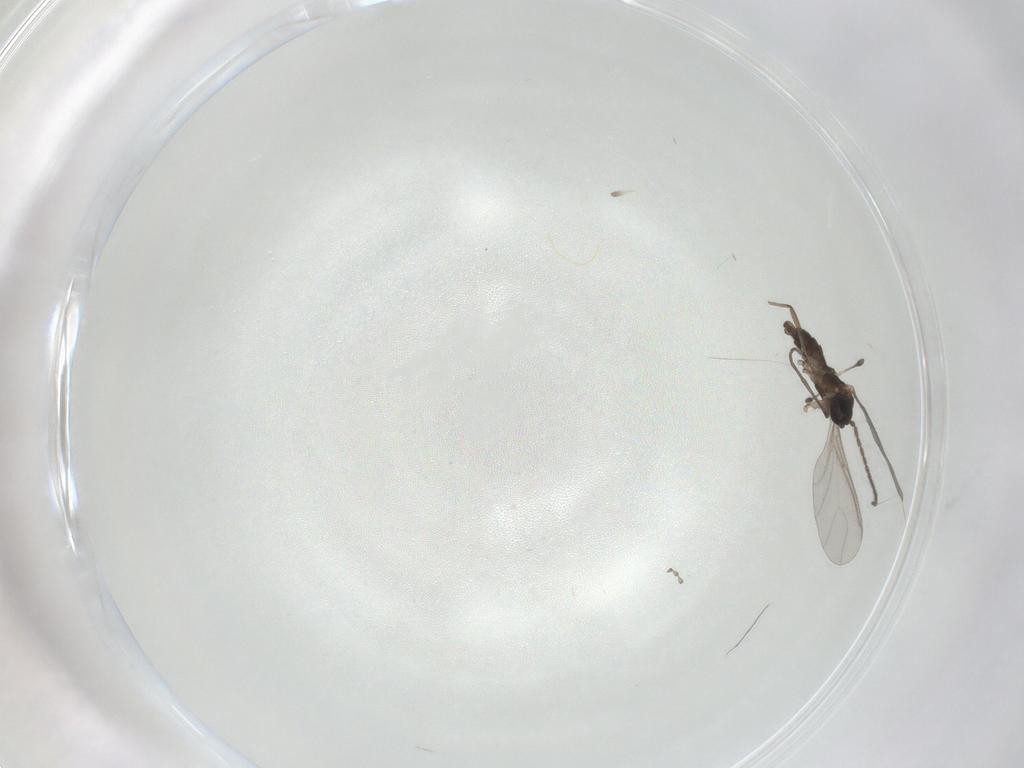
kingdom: Animalia
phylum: Arthropoda
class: Insecta
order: Diptera
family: Sciaridae
